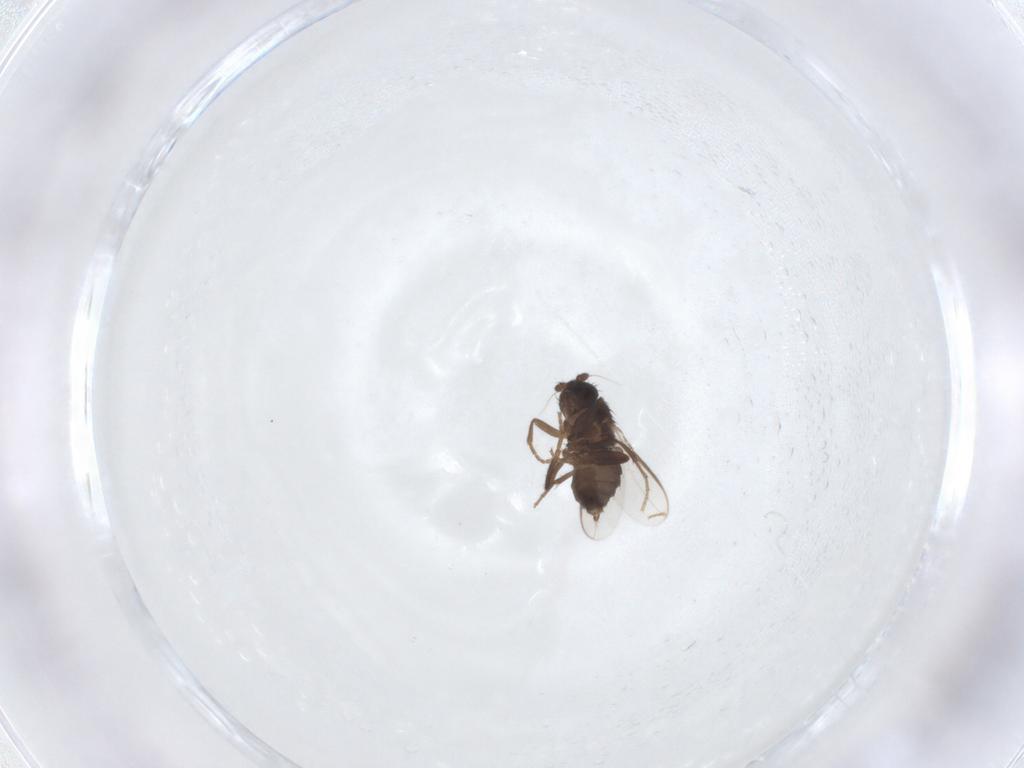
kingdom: Animalia
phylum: Arthropoda
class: Insecta
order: Diptera
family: Sphaeroceridae
